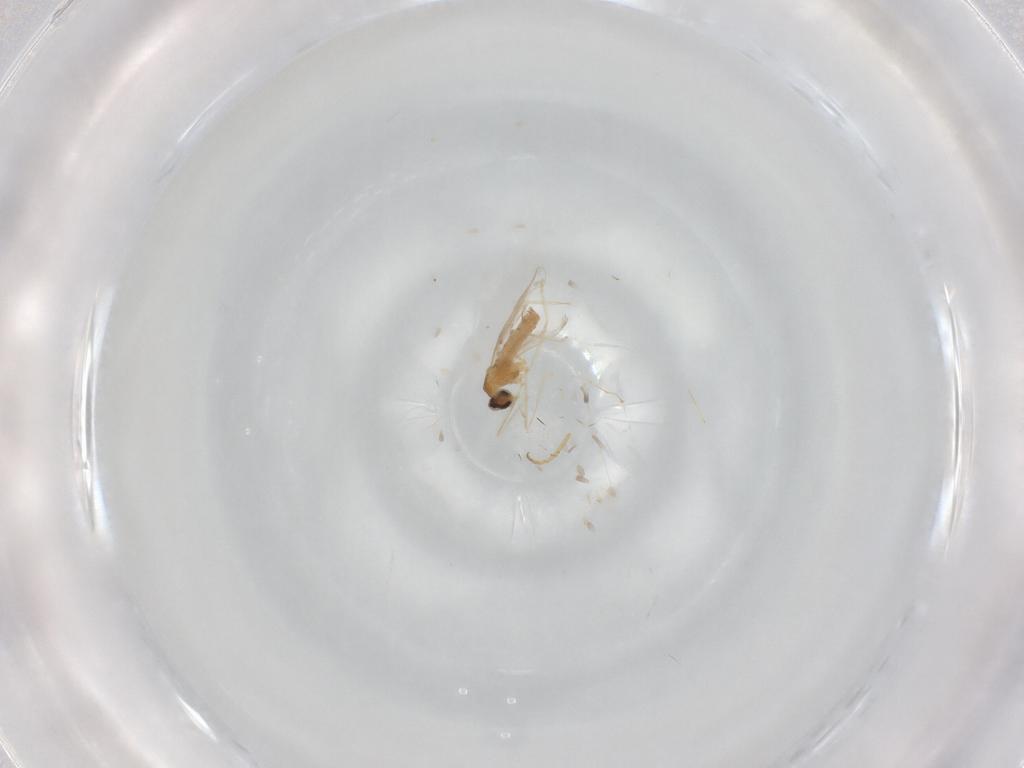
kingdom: Animalia
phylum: Arthropoda
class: Insecta
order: Diptera
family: Cecidomyiidae
